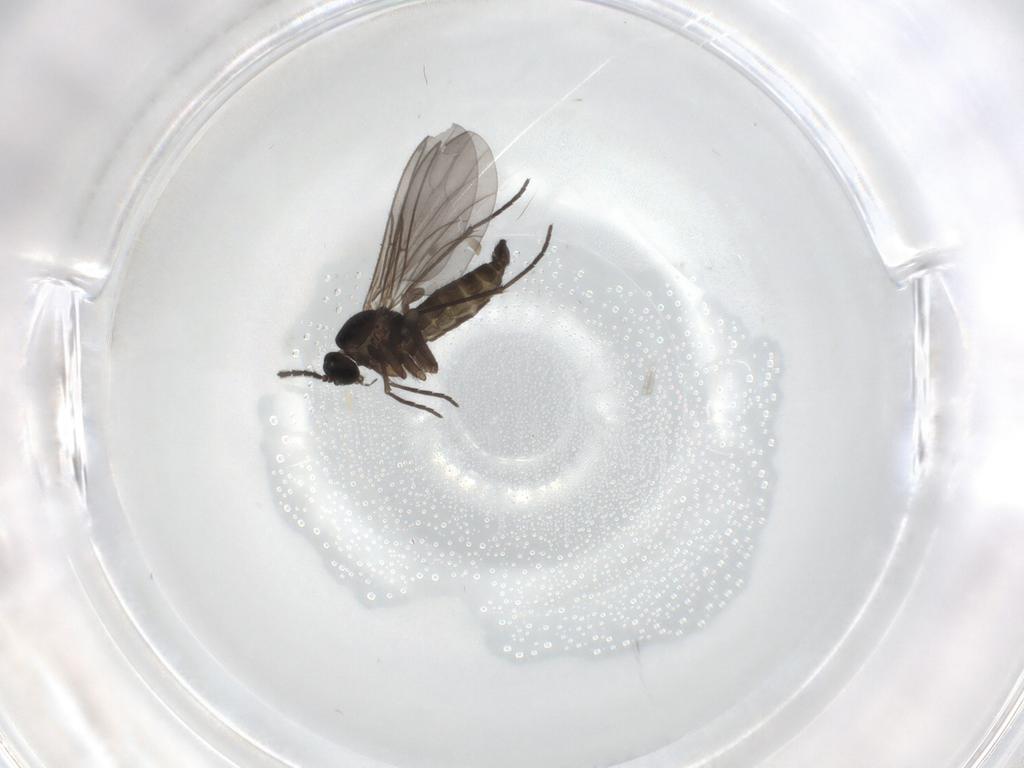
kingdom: Animalia
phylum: Arthropoda
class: Insecta
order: Diptera
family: Sciaridae
